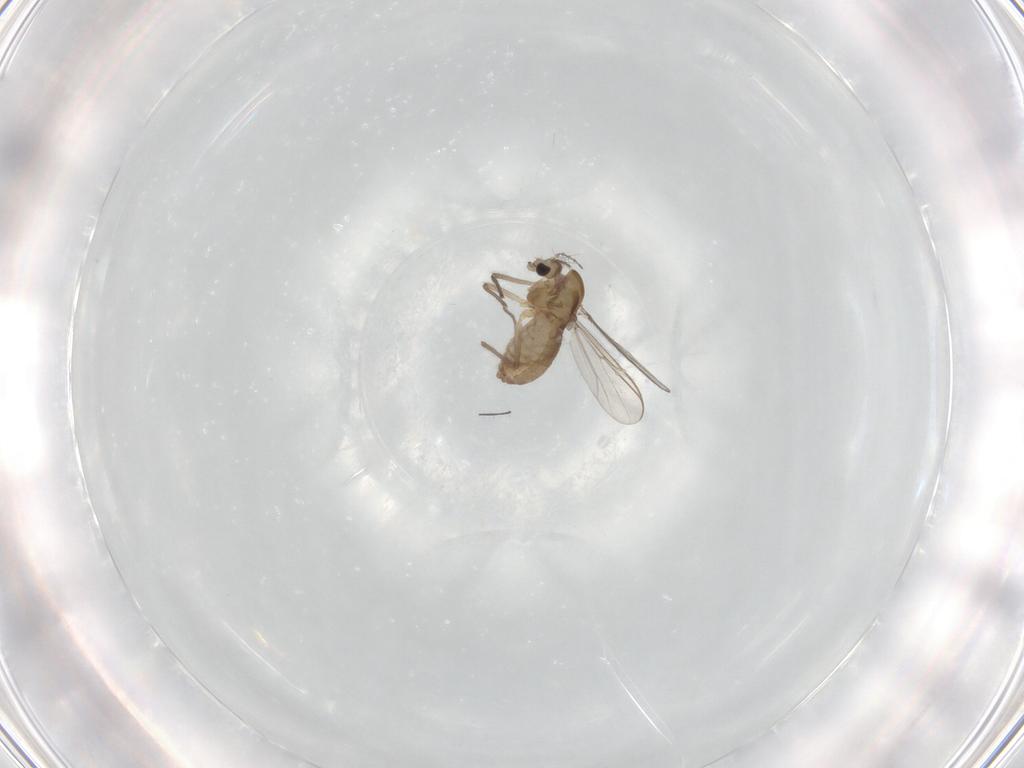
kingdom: Animalia
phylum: Arthropoda
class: Insecta
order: Diptera
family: Chironomidae
